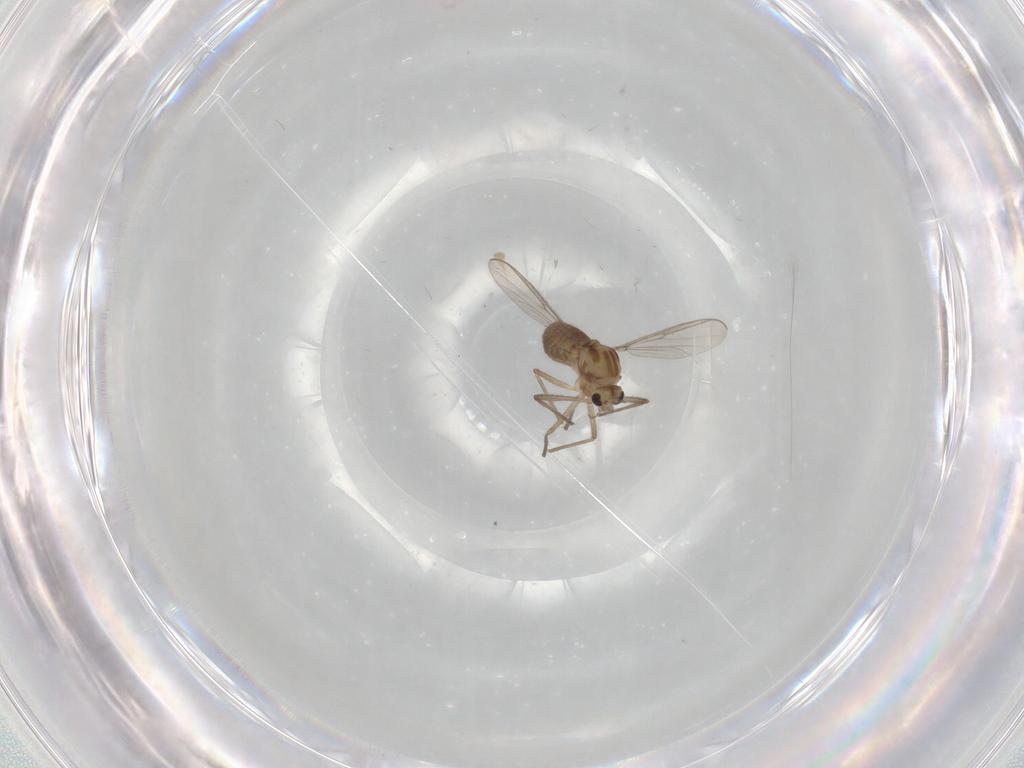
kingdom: Animalia
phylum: Arthropoda
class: Insecta
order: Diptera
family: Chironomidae
